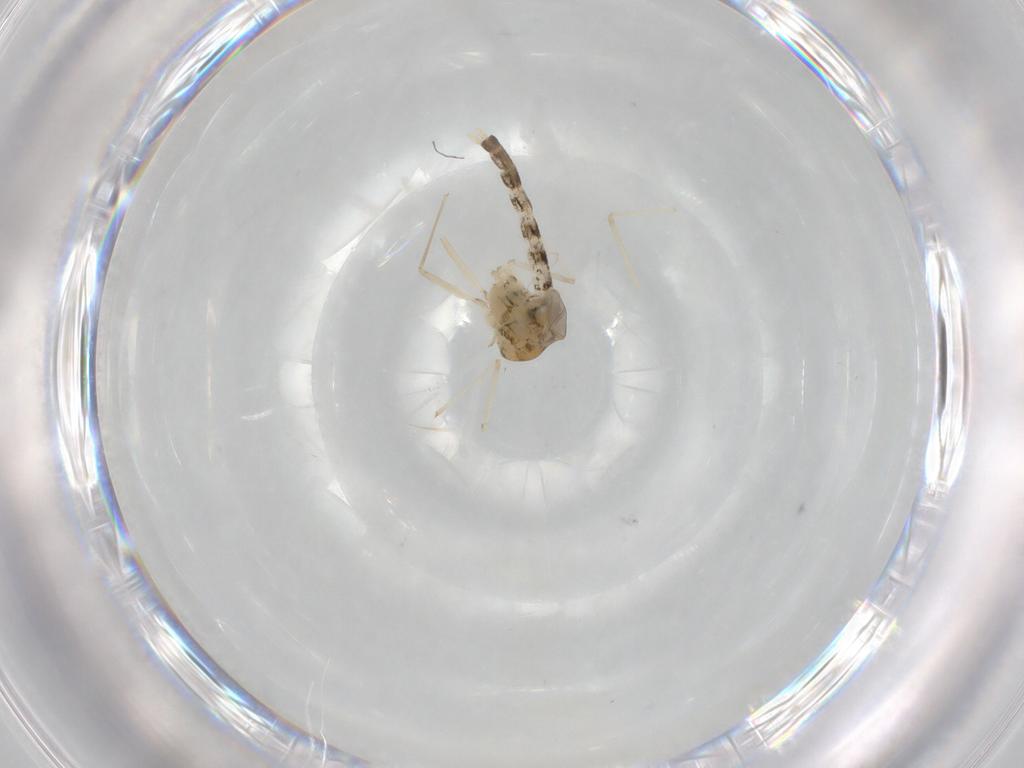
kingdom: Animalia
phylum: Arthropoda
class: Insecta
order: Diptera
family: Chironomidae
